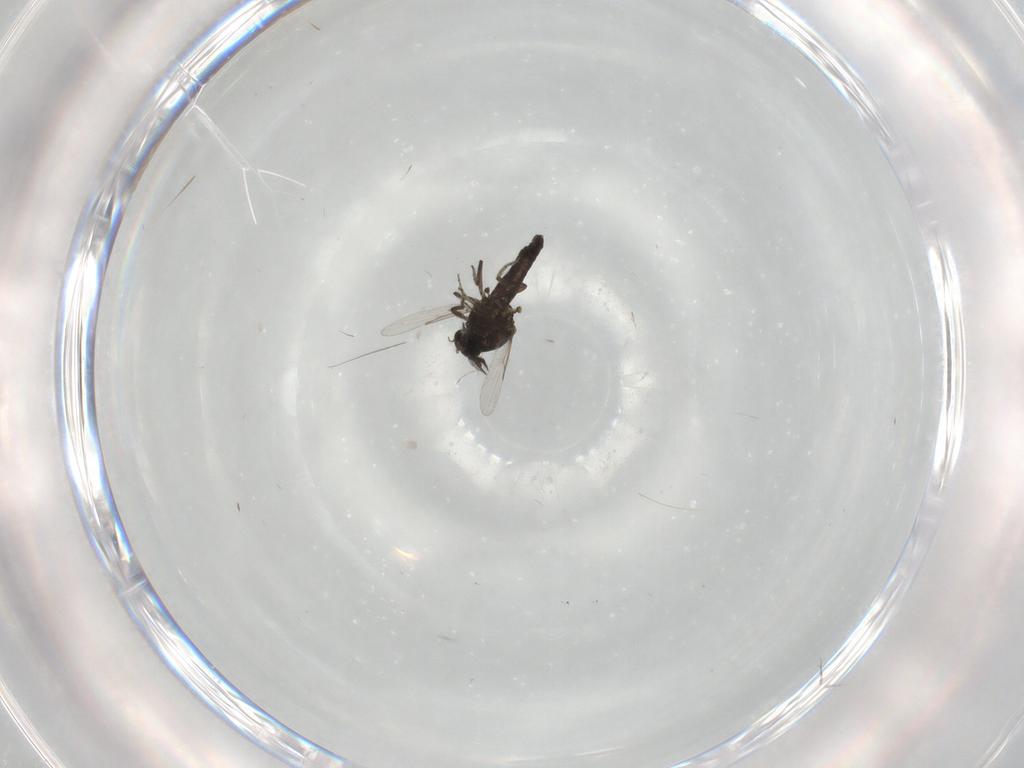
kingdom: Animalia
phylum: Arthropoda
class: Insecta
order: Diptera
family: Ceratopogonidae
